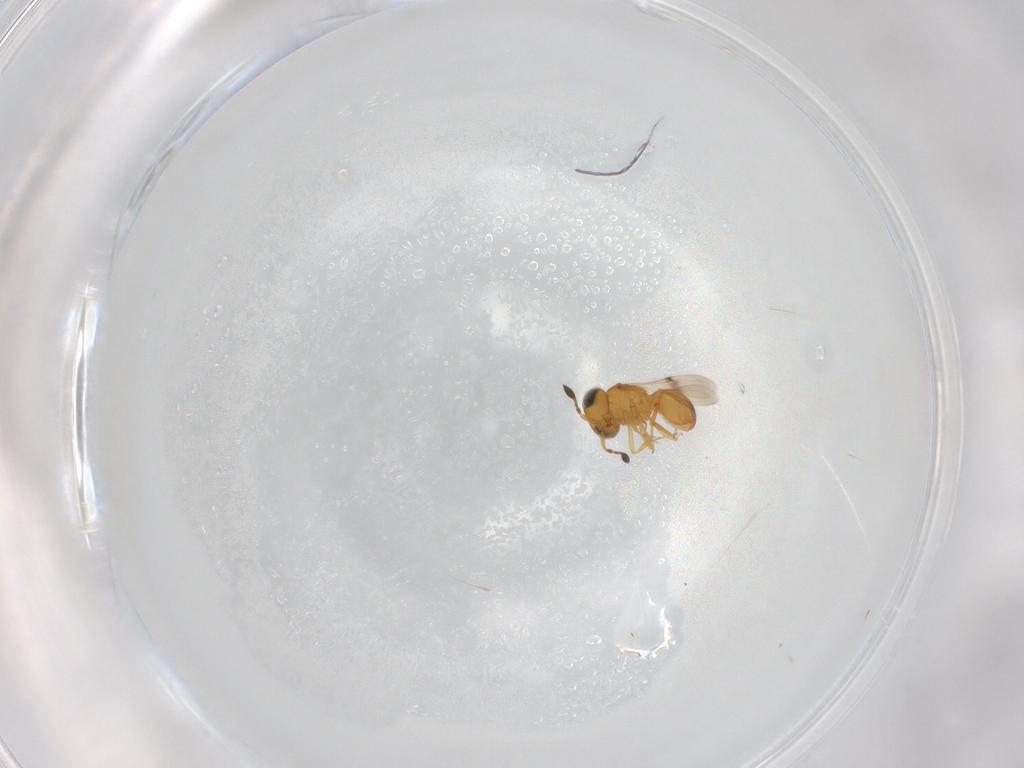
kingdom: Animalia
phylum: Arthropoda
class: Arachnida
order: Araneae
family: Pholcidae
